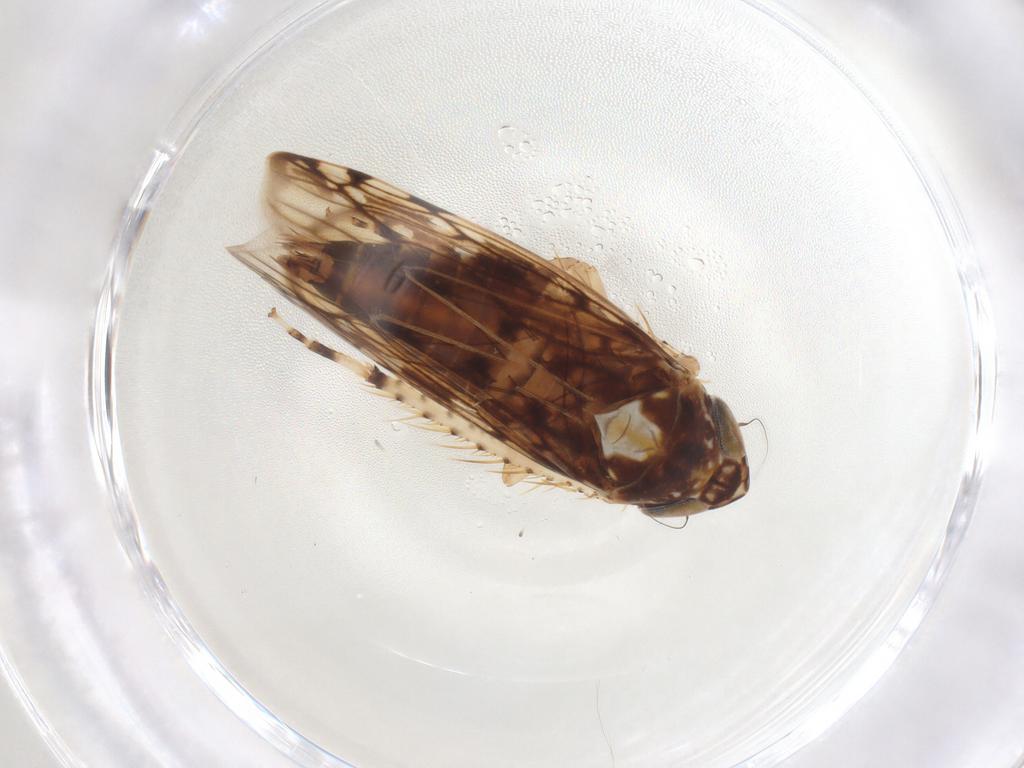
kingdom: Animalia
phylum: Arthropoda
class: Insecta
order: Hemiptera
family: Cicadellidae
